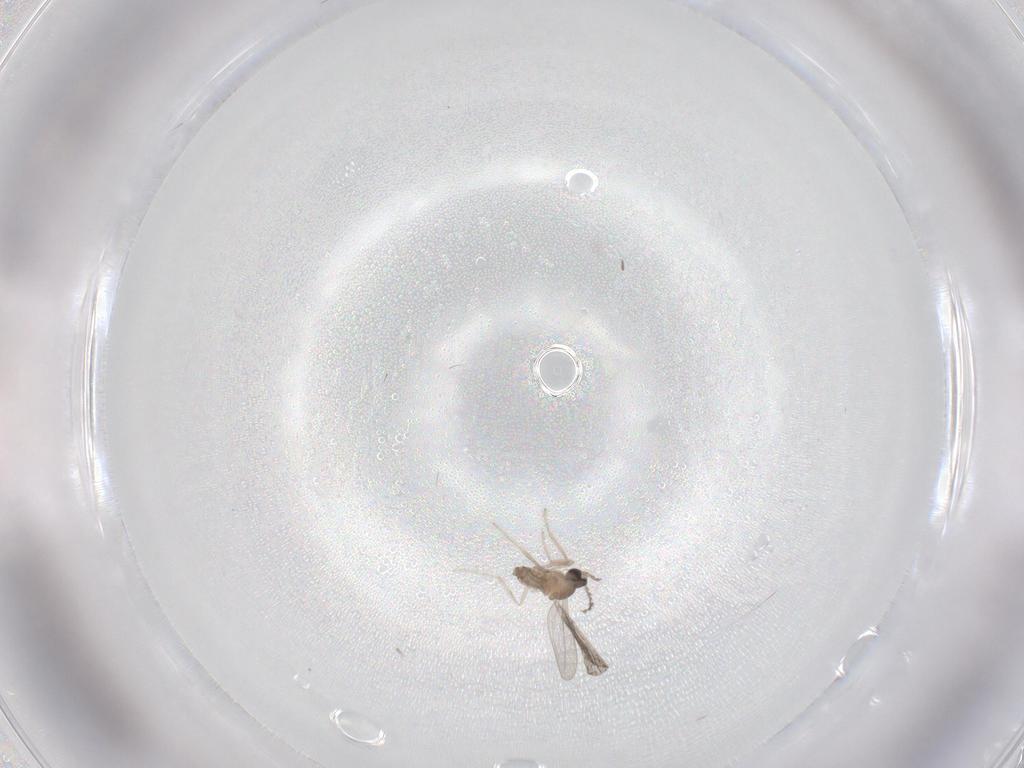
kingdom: Animalia
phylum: Arthropoda
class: Insecta
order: Diptera
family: Cecidomyiidae
